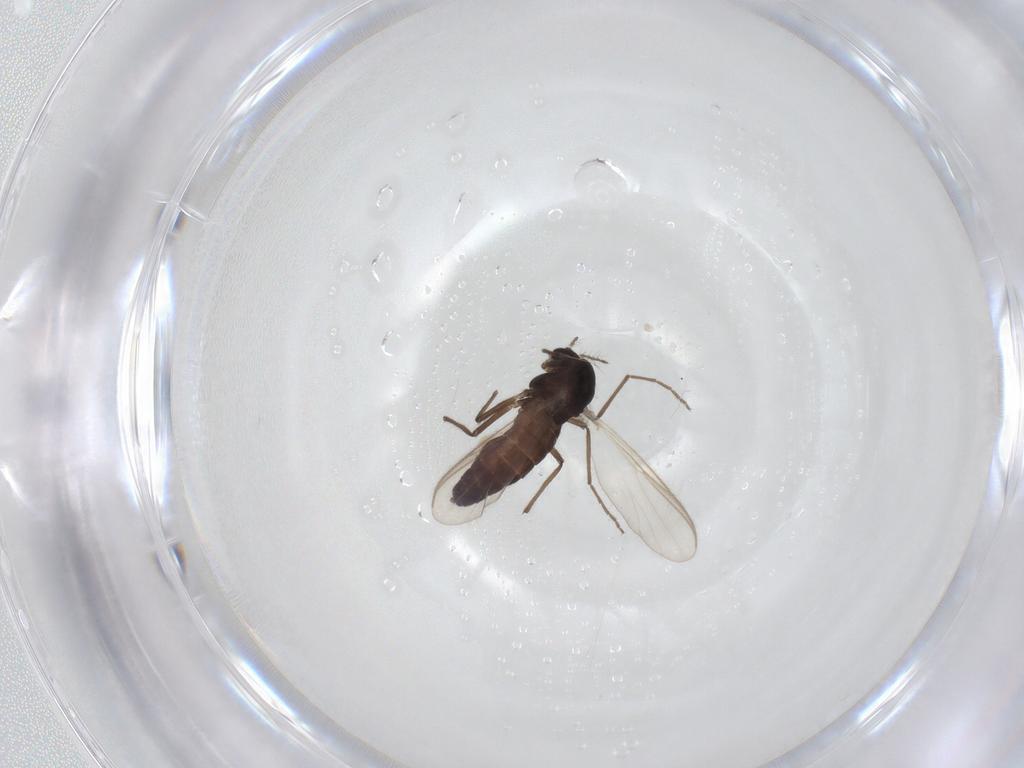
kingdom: Animalia
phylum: Arthropoda
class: Insecta
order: Diptera
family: Chironomidae
